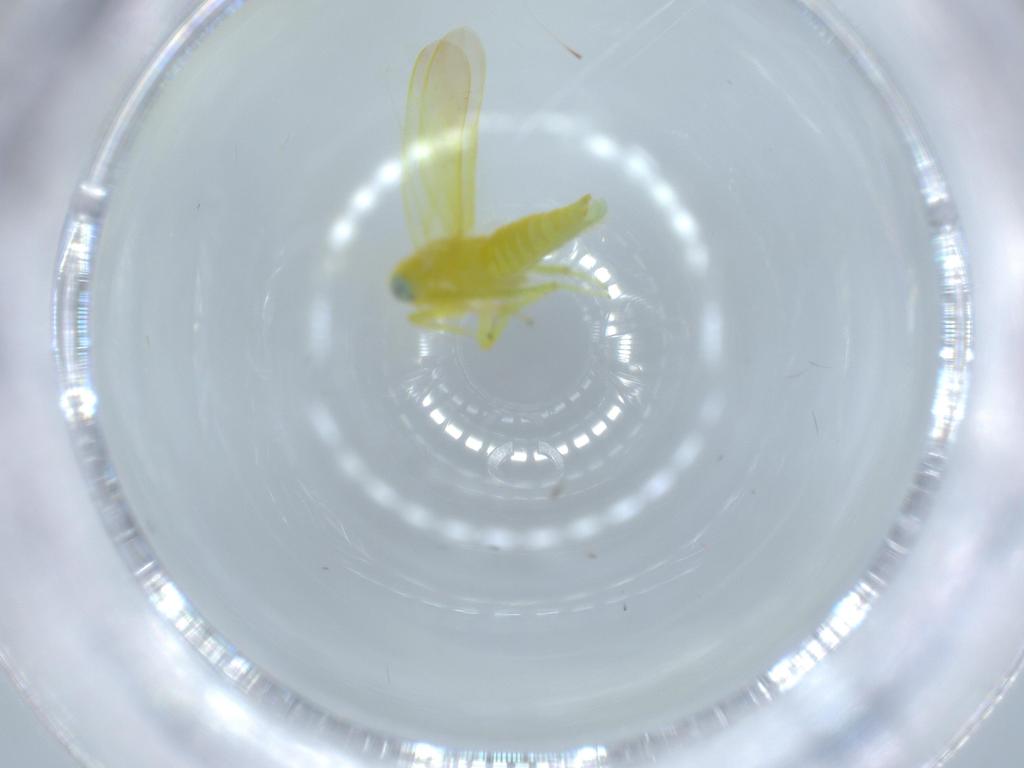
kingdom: Animalia
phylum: Arthropoda
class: Insecta
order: Hemiptera
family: Cicadellidae
